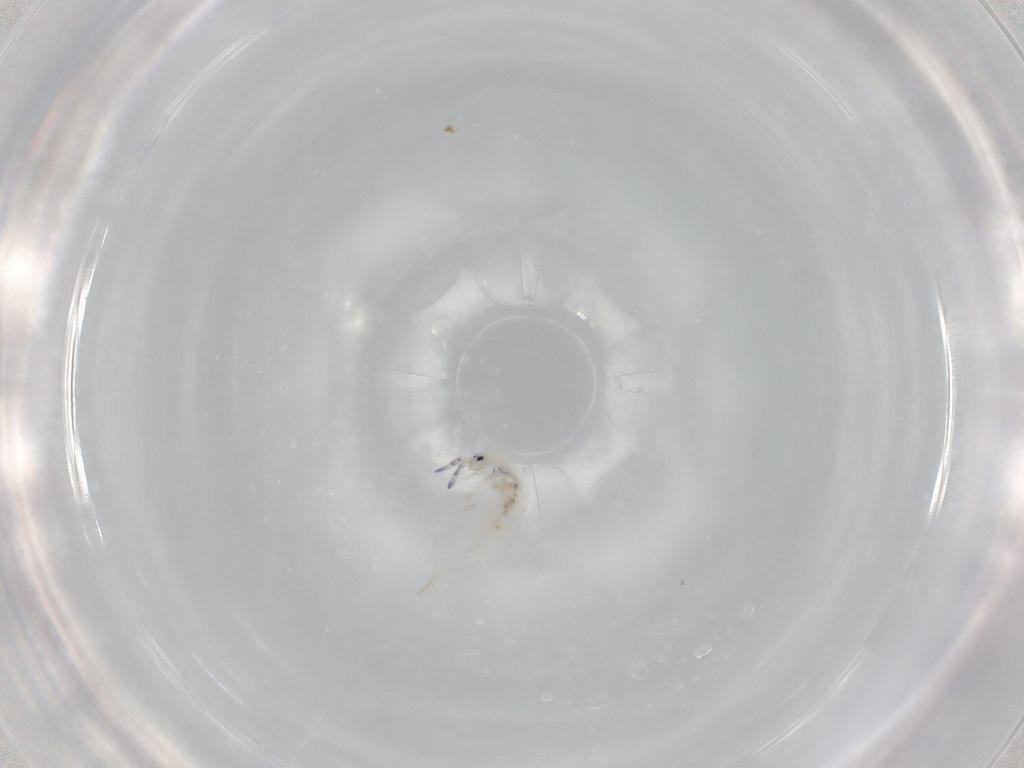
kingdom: Animalia
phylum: Arthropoda
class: Collembola
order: Entomobryomorpha
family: Entomobryidae
